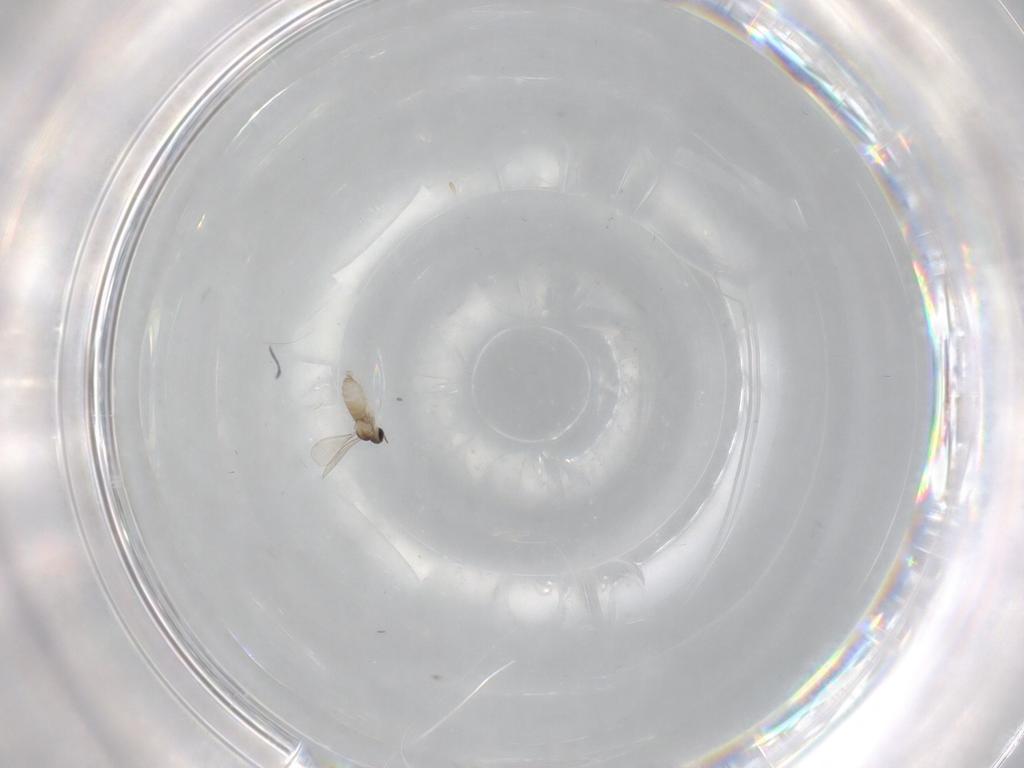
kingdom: Animalia
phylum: Arthropoda
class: Insecta
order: Diptera
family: Phoridae
